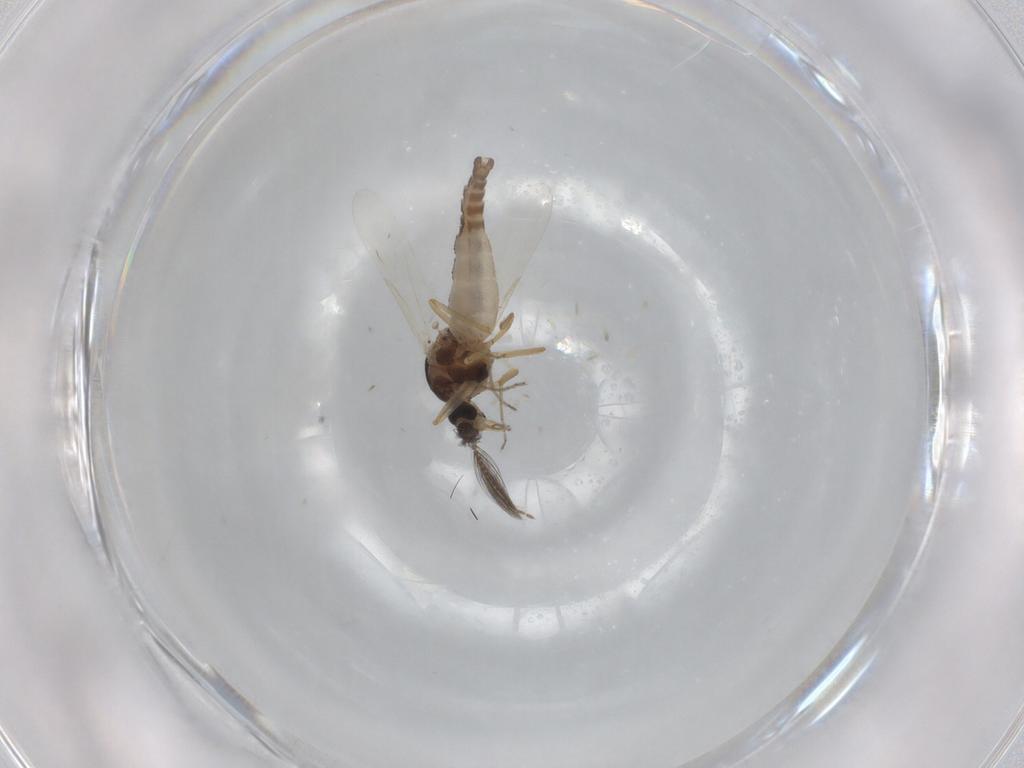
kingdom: Animalia
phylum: Arthropoda
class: Insecta
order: Diptera
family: Ceratopogonidae
